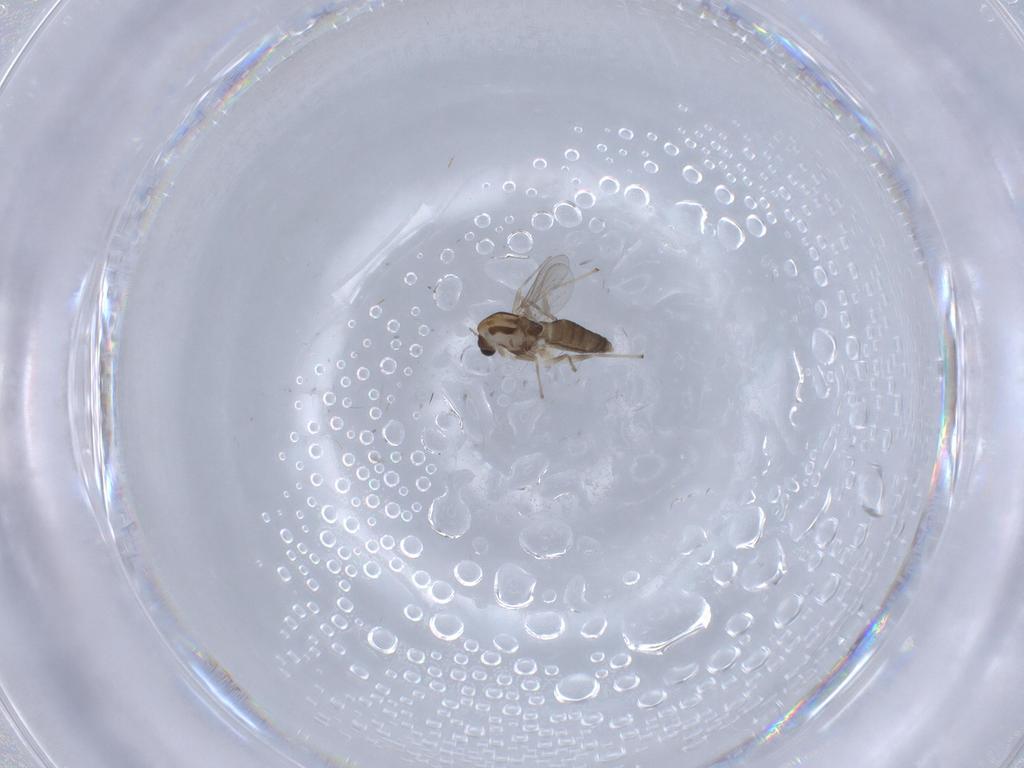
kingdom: Animalia
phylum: Arthropoda
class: Insecta
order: Diptera
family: Chironomidae
